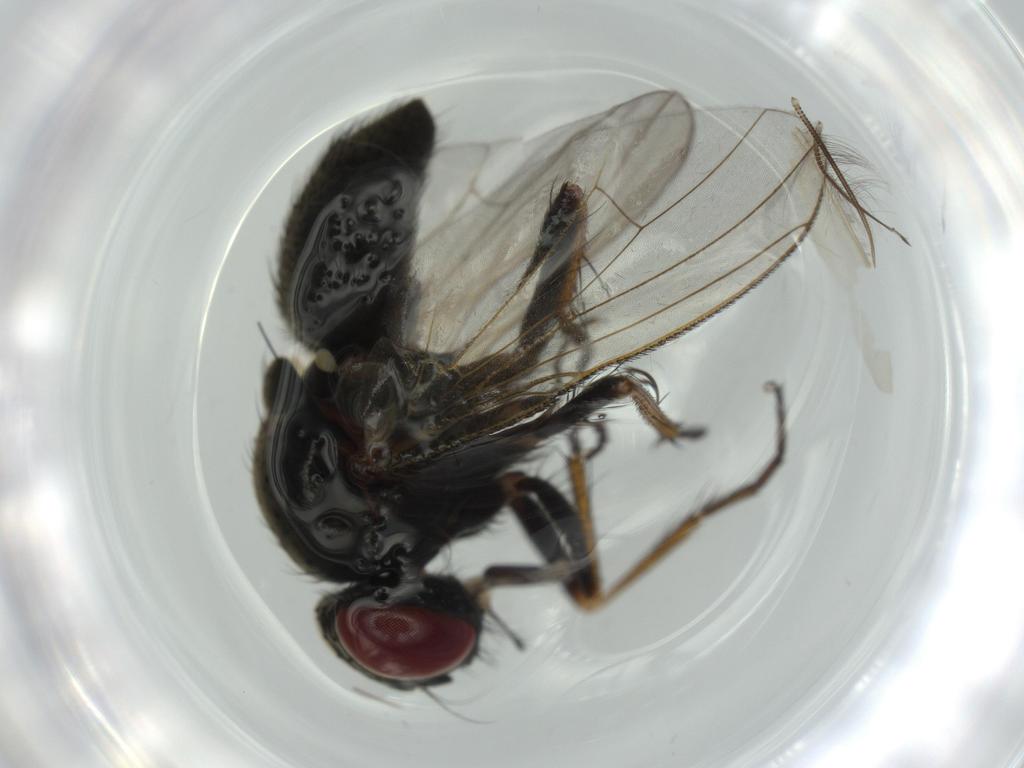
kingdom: Animalia
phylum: Arthropoda
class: Insecta
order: Diptera
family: Chironomidae
